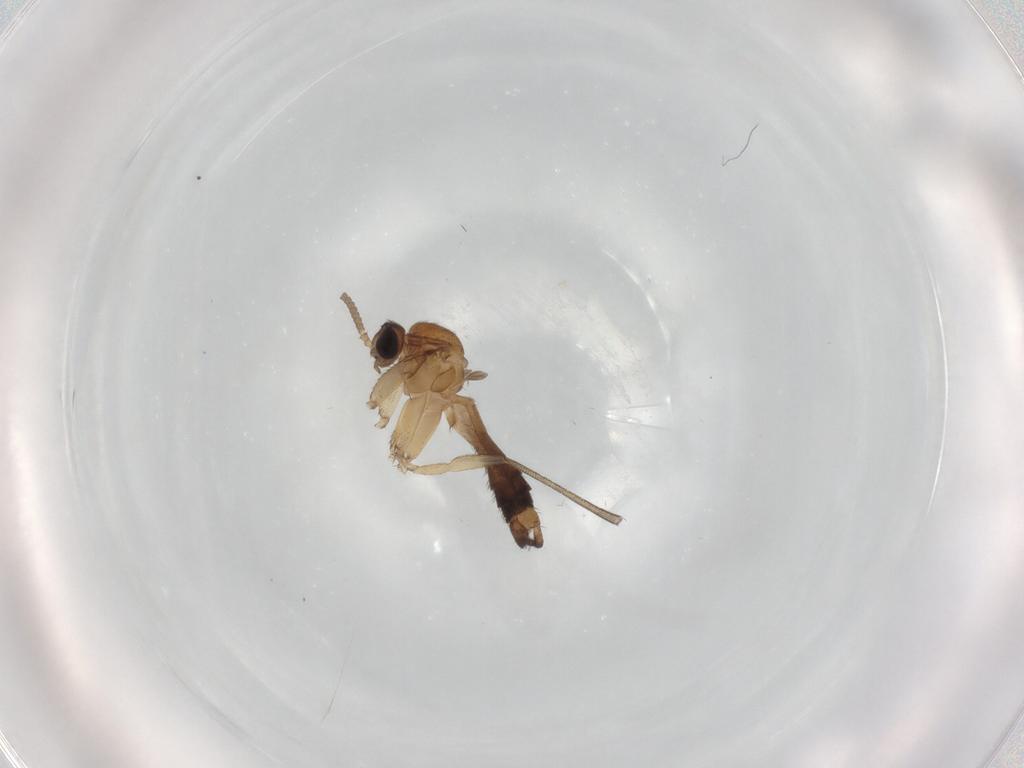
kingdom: Animalia
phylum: Arthropoda
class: Insecta
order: Diptera
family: Keroplatidae
